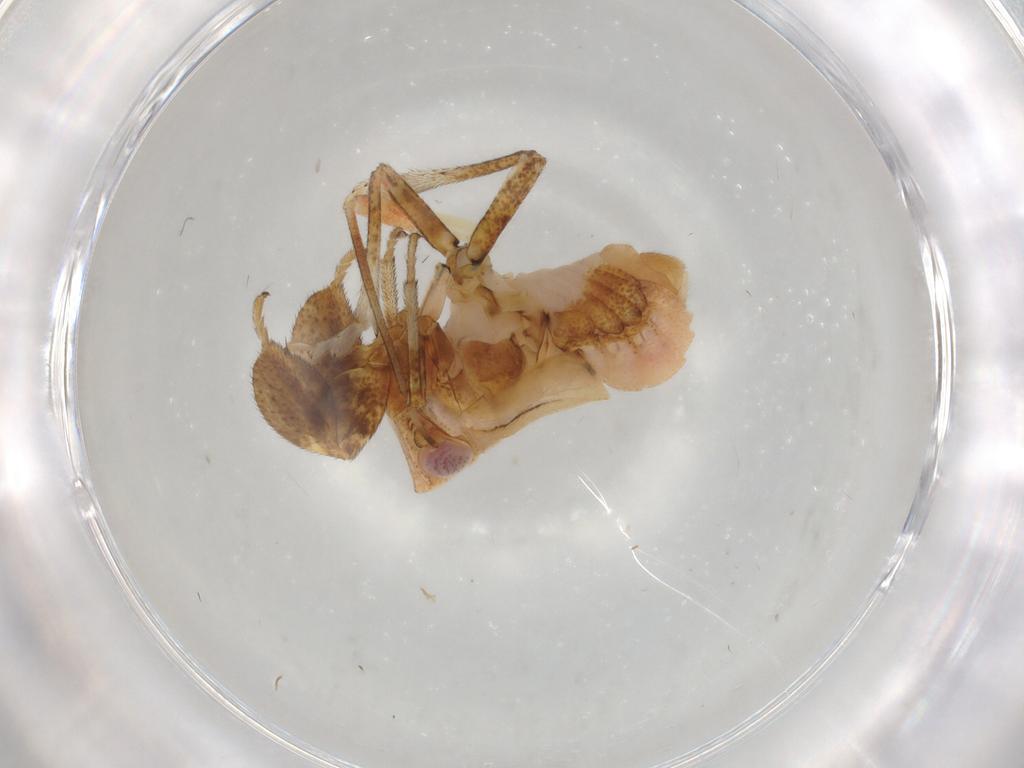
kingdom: Animalia
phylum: Arthropoda
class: Insecta
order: Hemiptera
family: Caliscelidae
